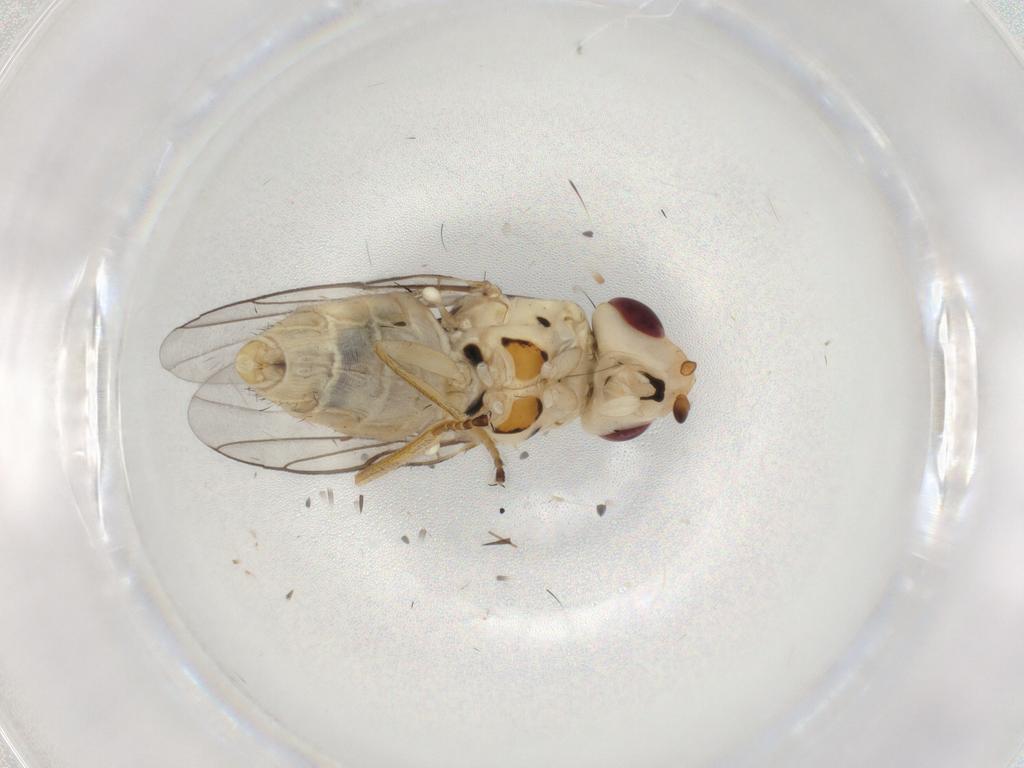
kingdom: Animalia
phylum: Arthropoda
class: Insecta
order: Diptera
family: Chloropidae
